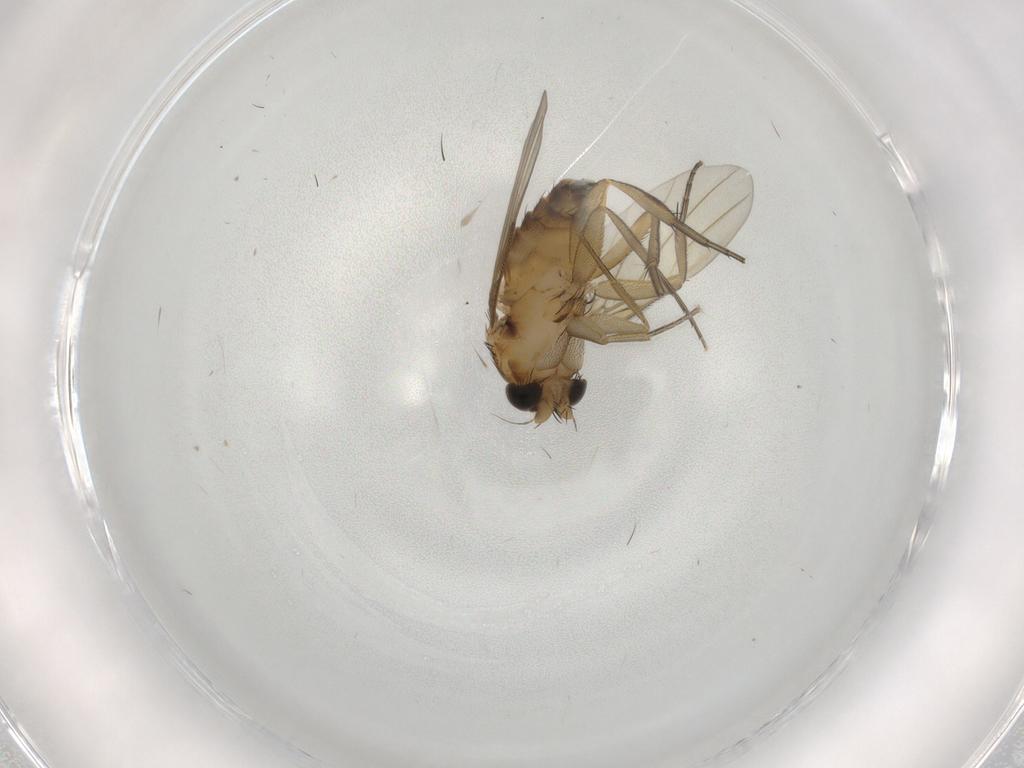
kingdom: Animalia
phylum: Arthropoda
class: Insecta
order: Diptera
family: Phoridae
